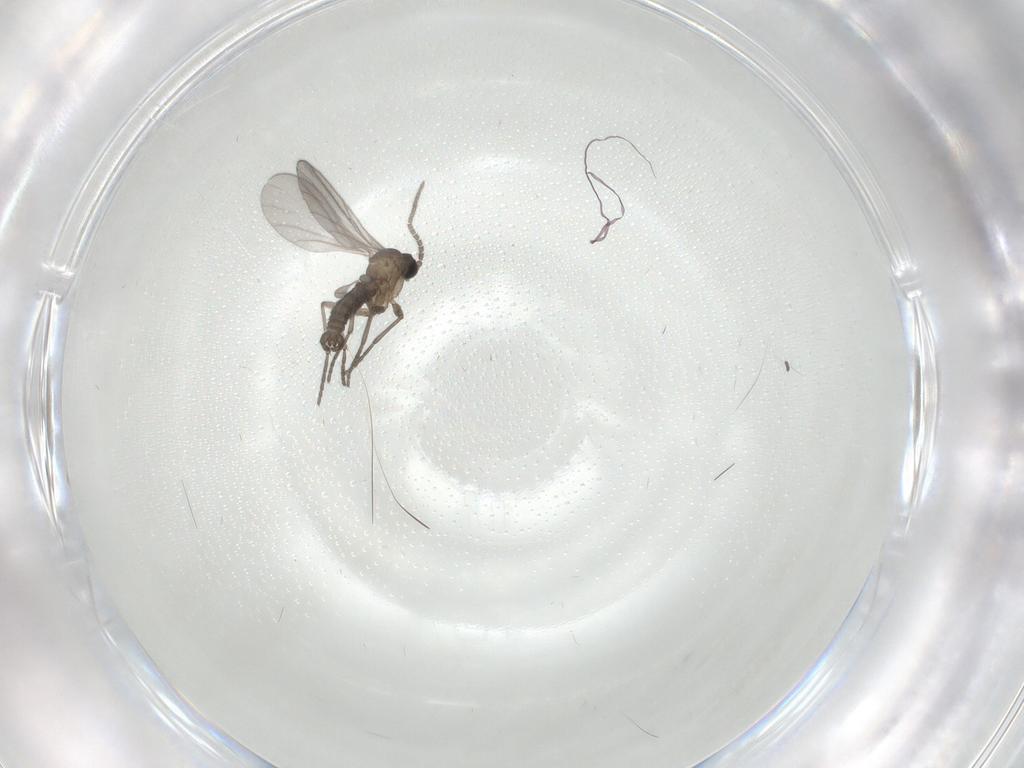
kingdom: Animalia
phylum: Arthropoda
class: Insecta
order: Diptera
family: Sciaridae
